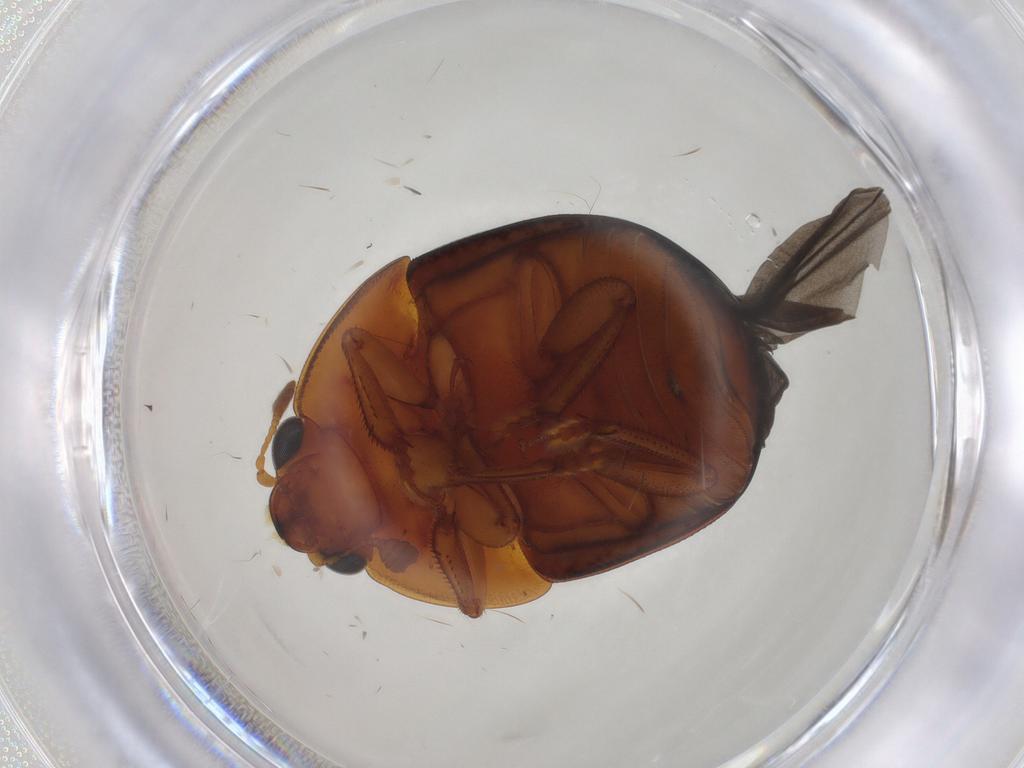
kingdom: Animalia
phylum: Arthropoda
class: Insecta
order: Coleoptera
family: Nitidulidae
